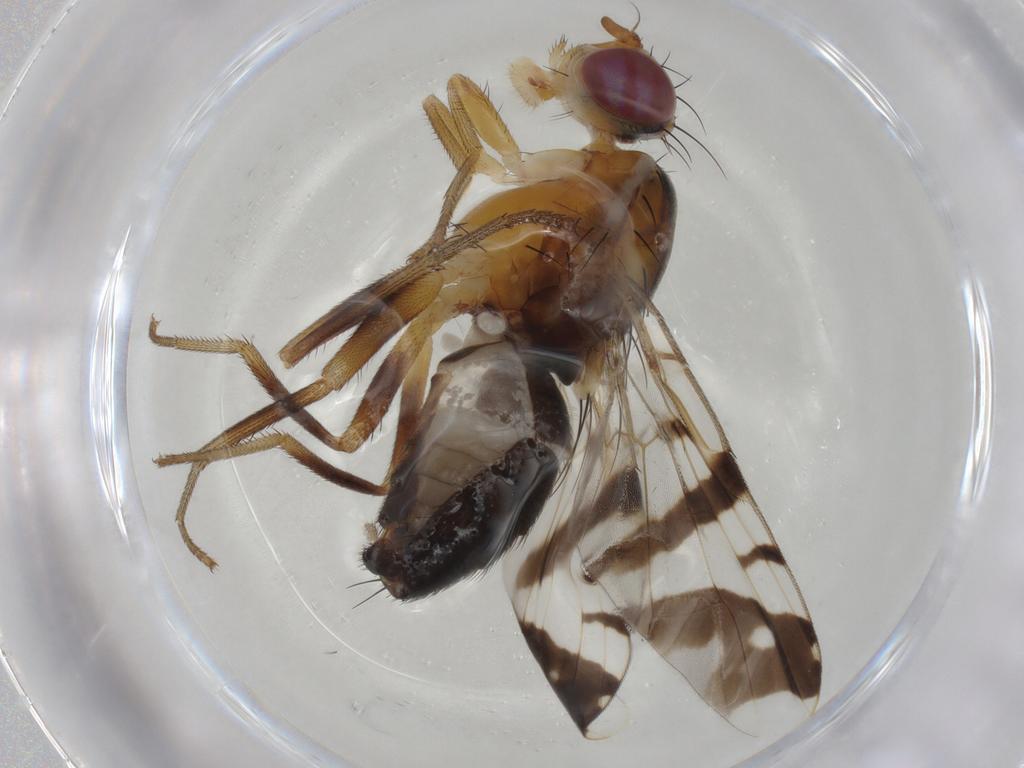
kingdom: Animalia
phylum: Arthropoda
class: Insecta
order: Diptera
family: Tephritidae
